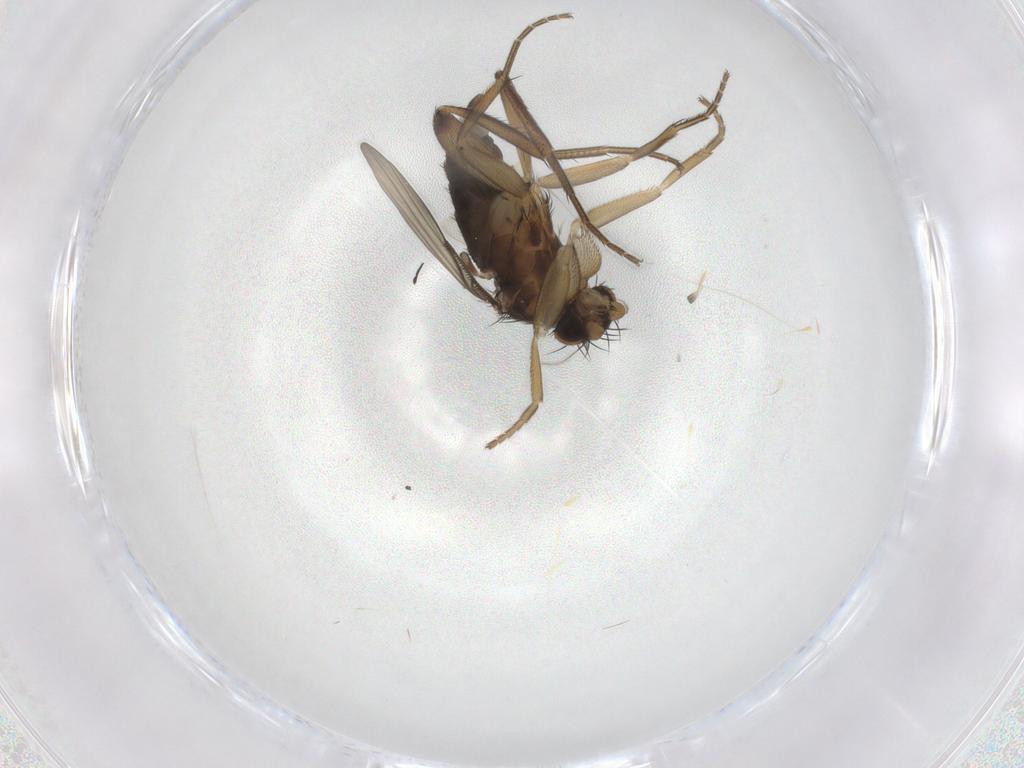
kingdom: Animalia
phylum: Arthropoda
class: Insecta
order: Diptera
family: Phoridae
